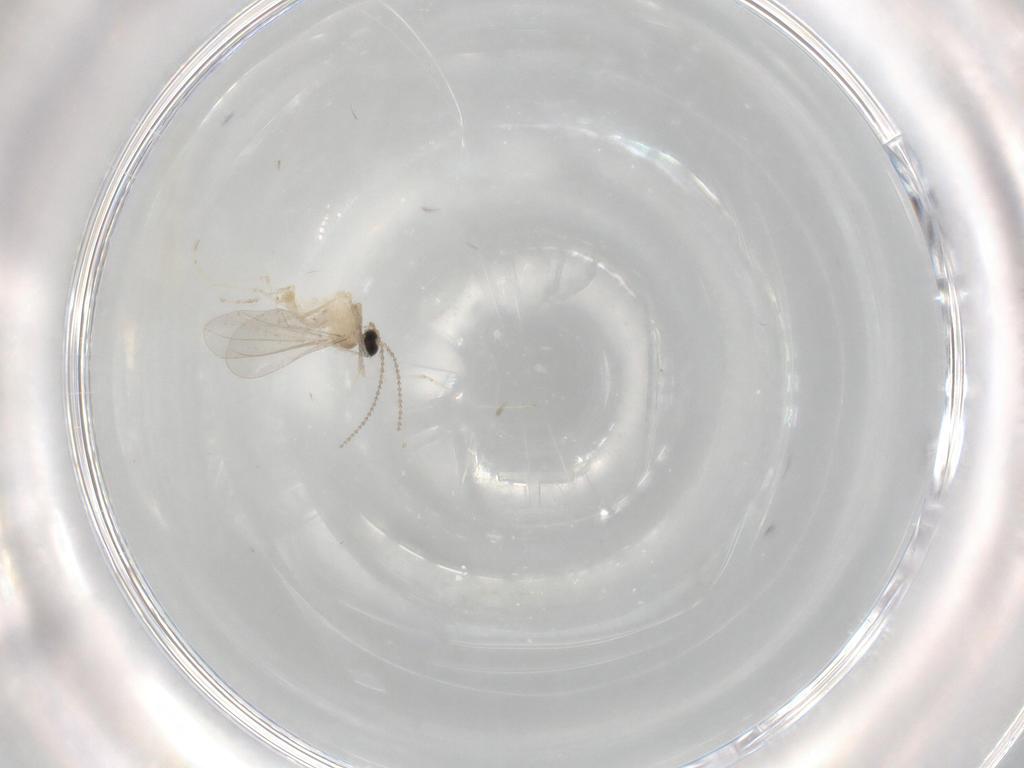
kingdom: Animalia
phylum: Arthropoda
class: Insecta
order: Diptera
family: Cecidomyiidae
